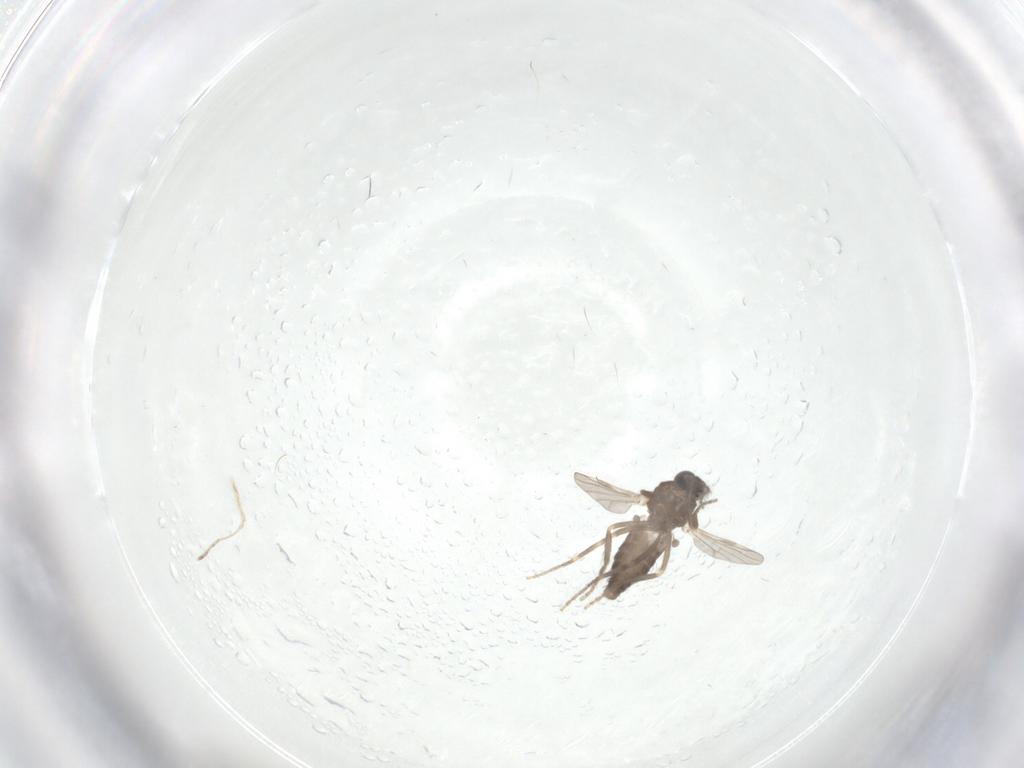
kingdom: Animalia
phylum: Arthropoda
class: Insecta
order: Diptera
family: Ceratopogonidae
